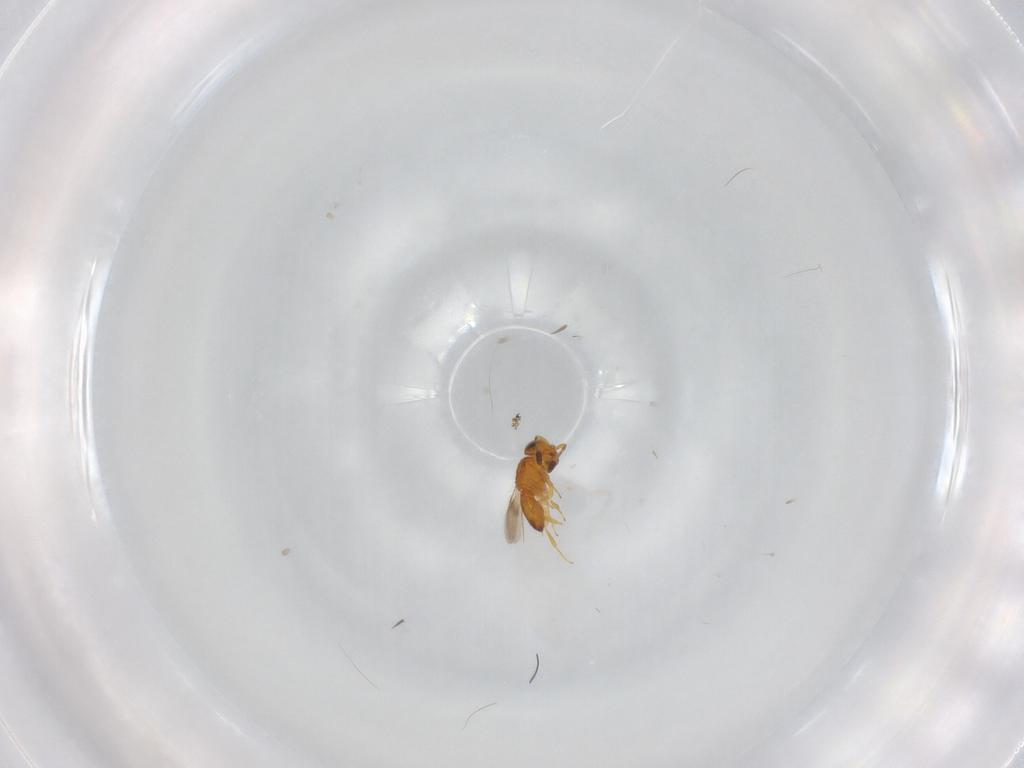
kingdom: Animalia
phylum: Arthropoda
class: Insecta
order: Hymenoptera
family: Scelionidae
